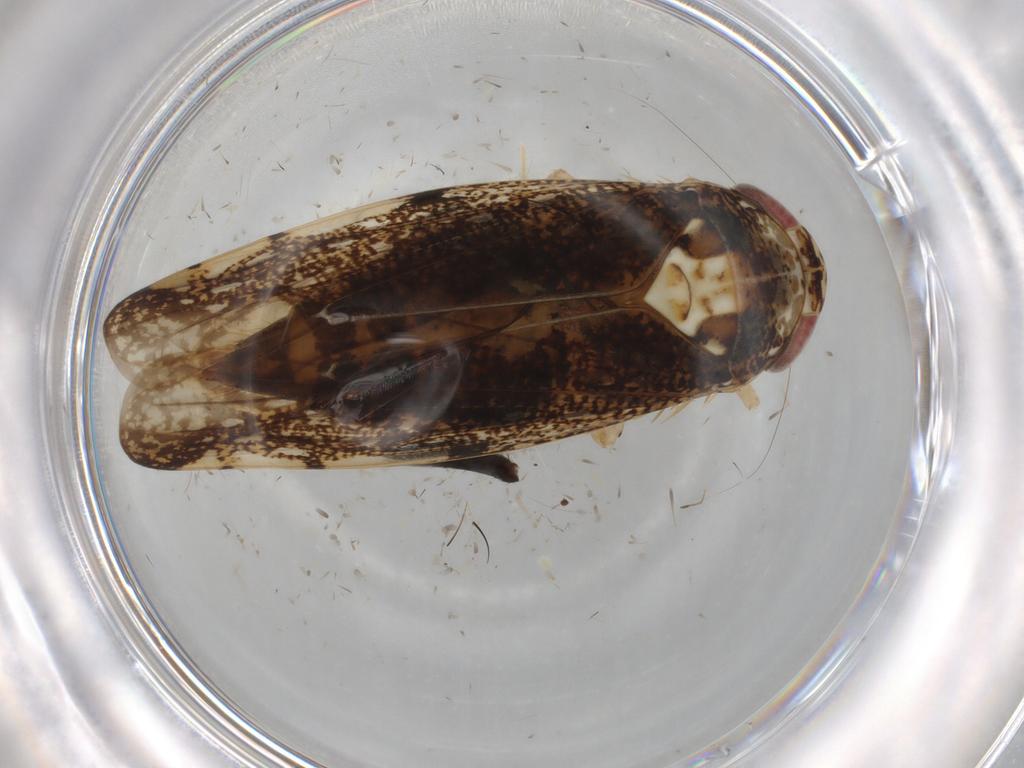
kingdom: Animalia
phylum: Arthropoda
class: Insecta
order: Hemiptera
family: Cicadellidae
